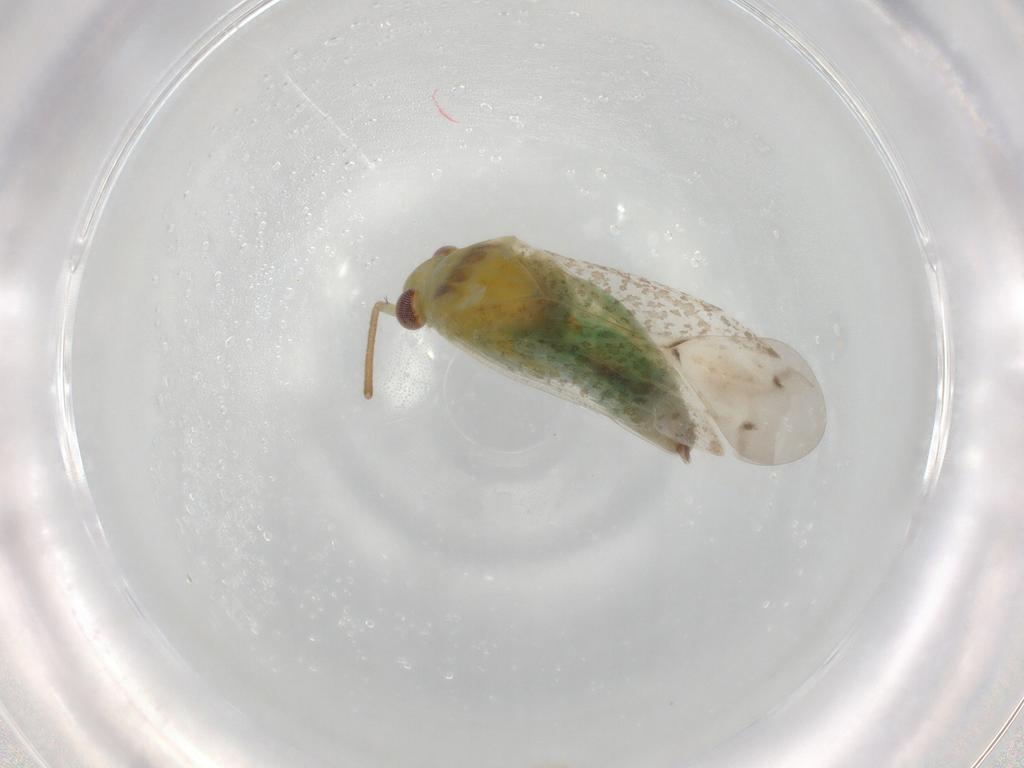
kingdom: Animalia
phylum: Arthropoda
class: Insecta
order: Hemiptera
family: Miridae
